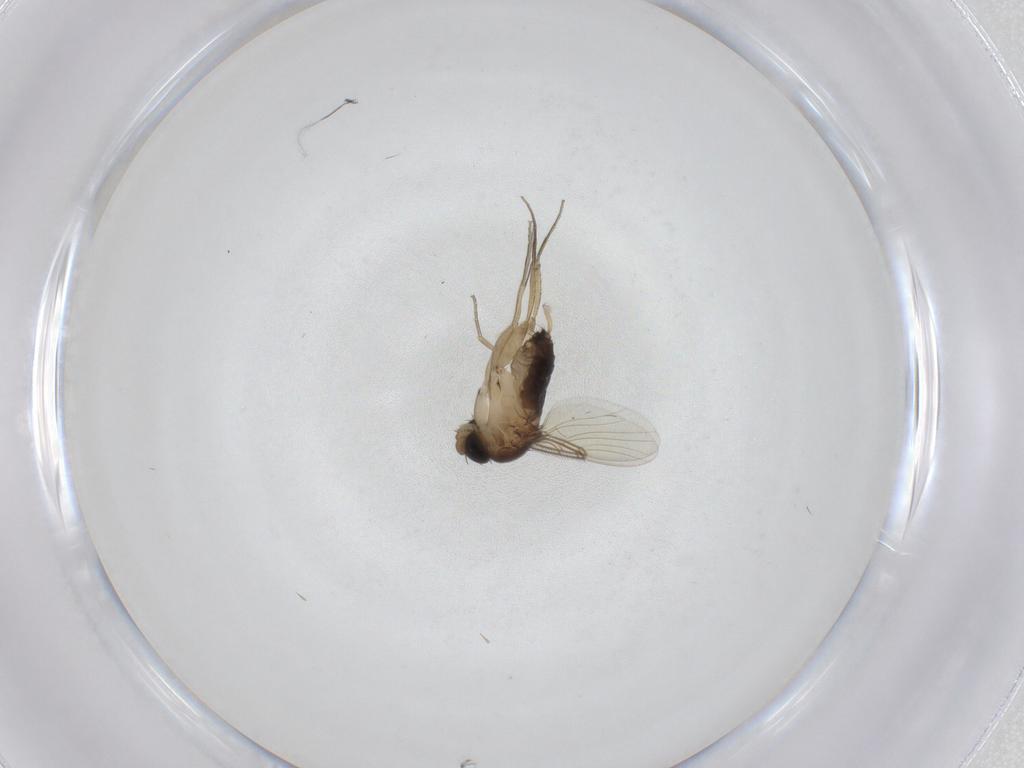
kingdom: Animalia
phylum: Arthropoda
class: Insecta
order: Diptera
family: Phoridae
